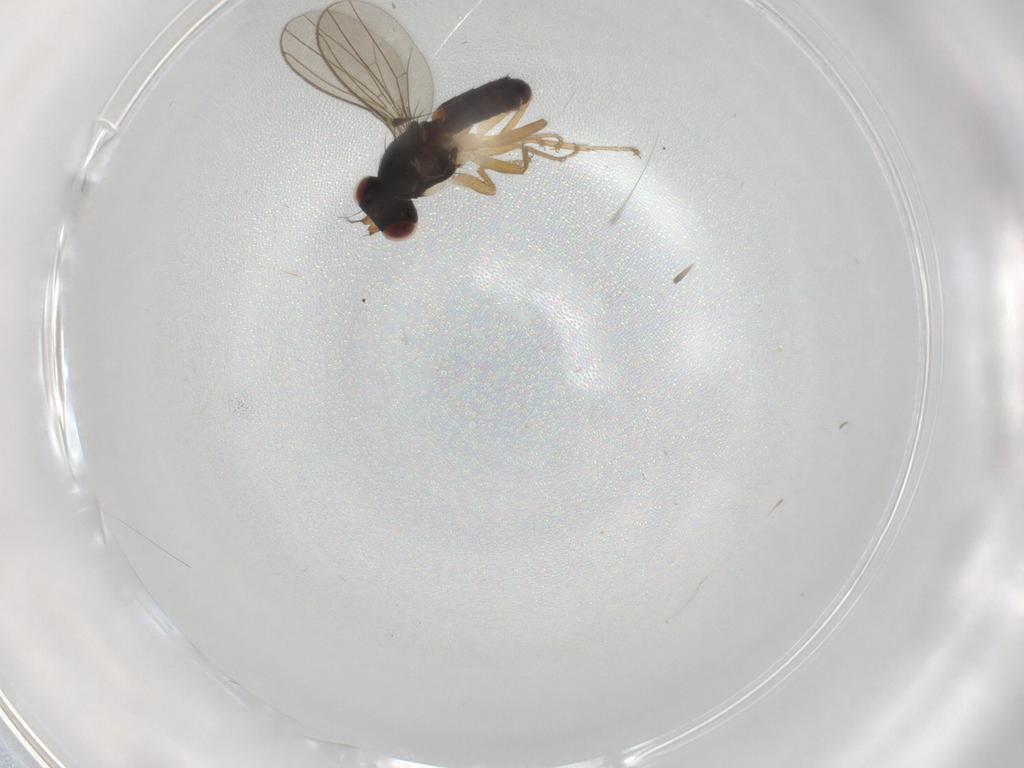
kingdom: Animalia
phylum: Arthropoda
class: Insecta
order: Diptera
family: Anthomyzidae
